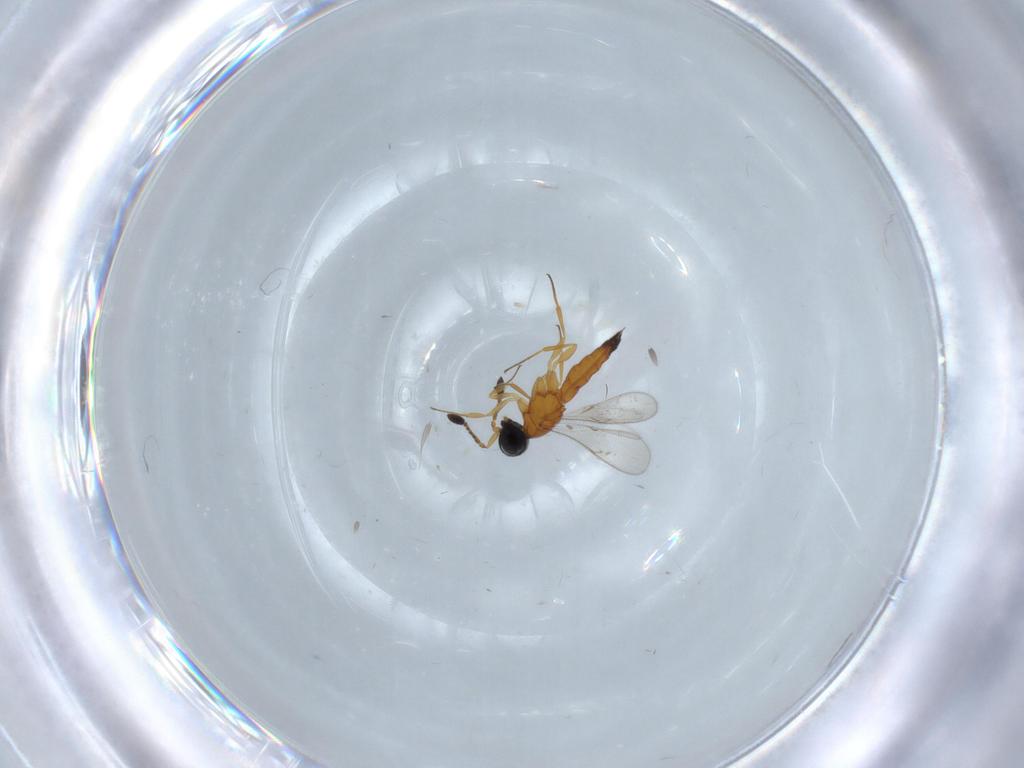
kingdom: Animalia
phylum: Arthropoda
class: Insecta
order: Hymenoptera
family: Scelionidae
